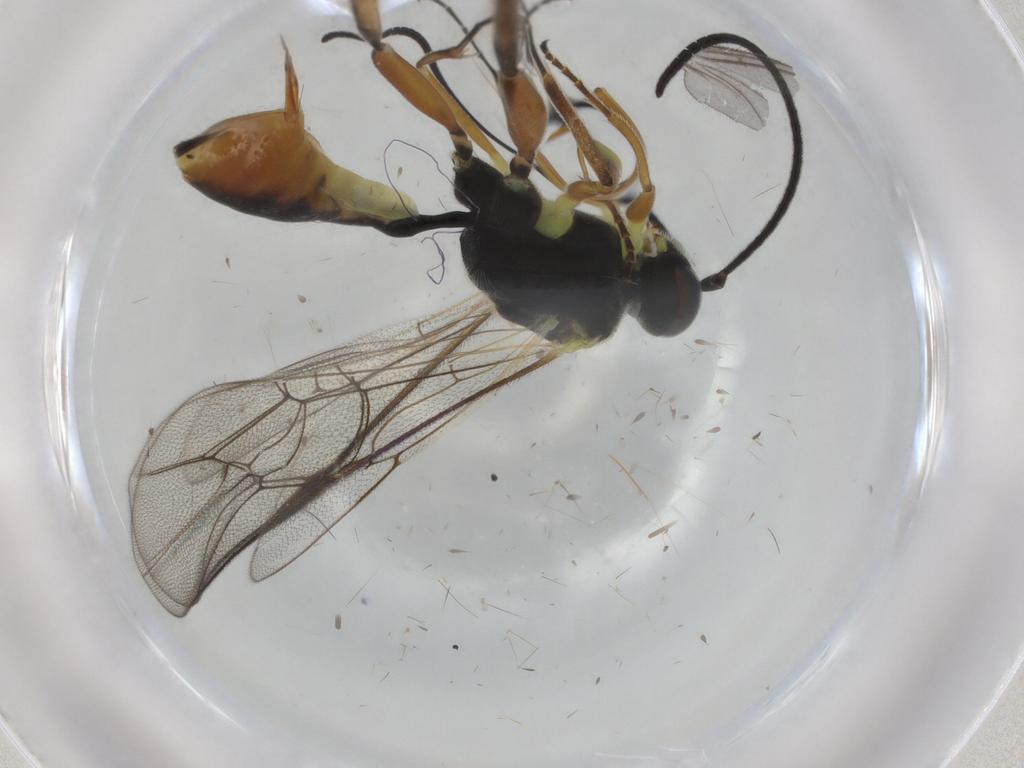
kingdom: Animalia
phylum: Arthropoda
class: Insecta
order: Hymenoptera
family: Ichneumonidae
